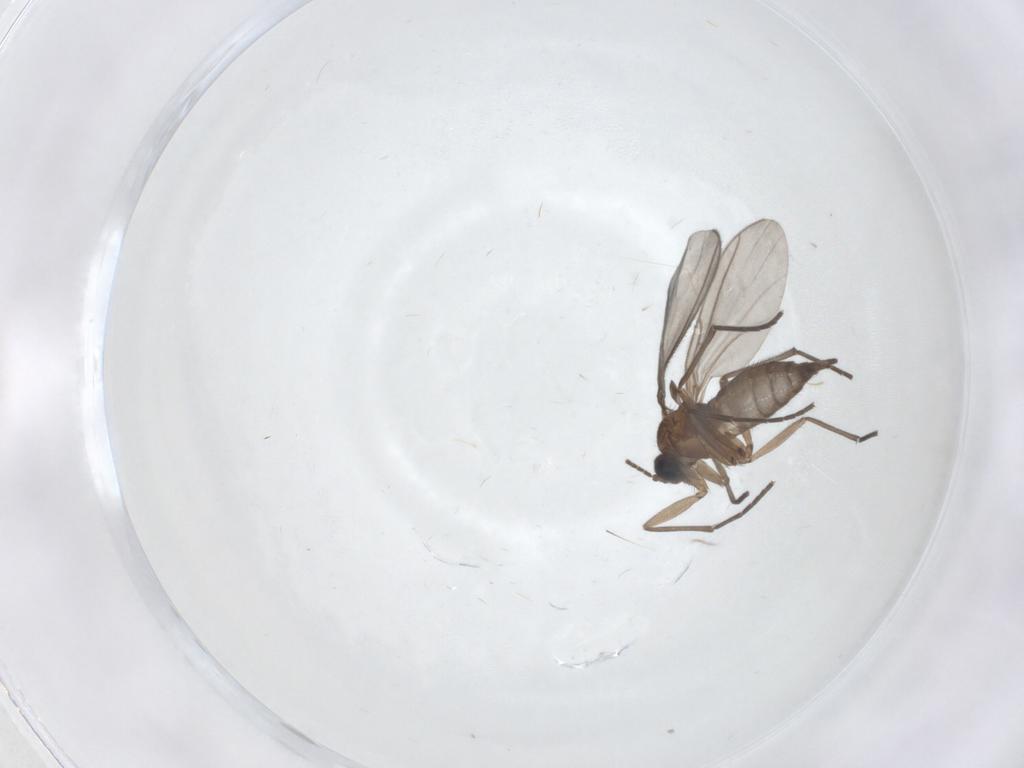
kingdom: Animalia
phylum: Arthropoda
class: Insecta
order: Diptera
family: Sciaridae
